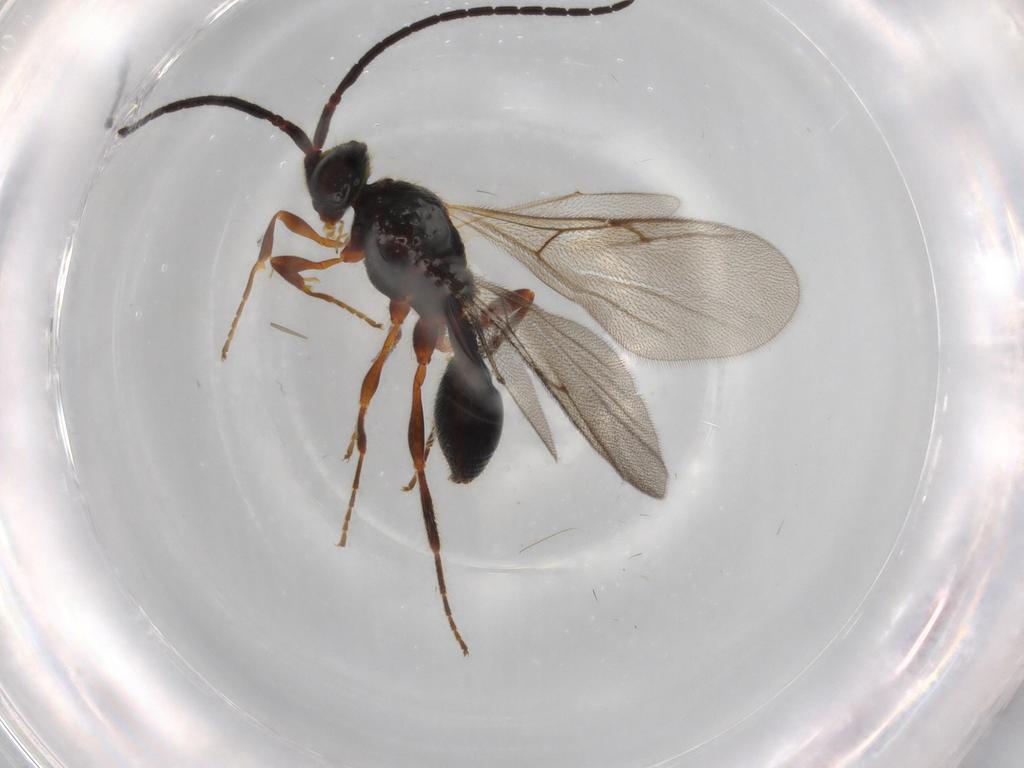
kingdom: Animalia
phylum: Arthropoda
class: Insecta
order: Hymenoptera
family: Diapriidae
